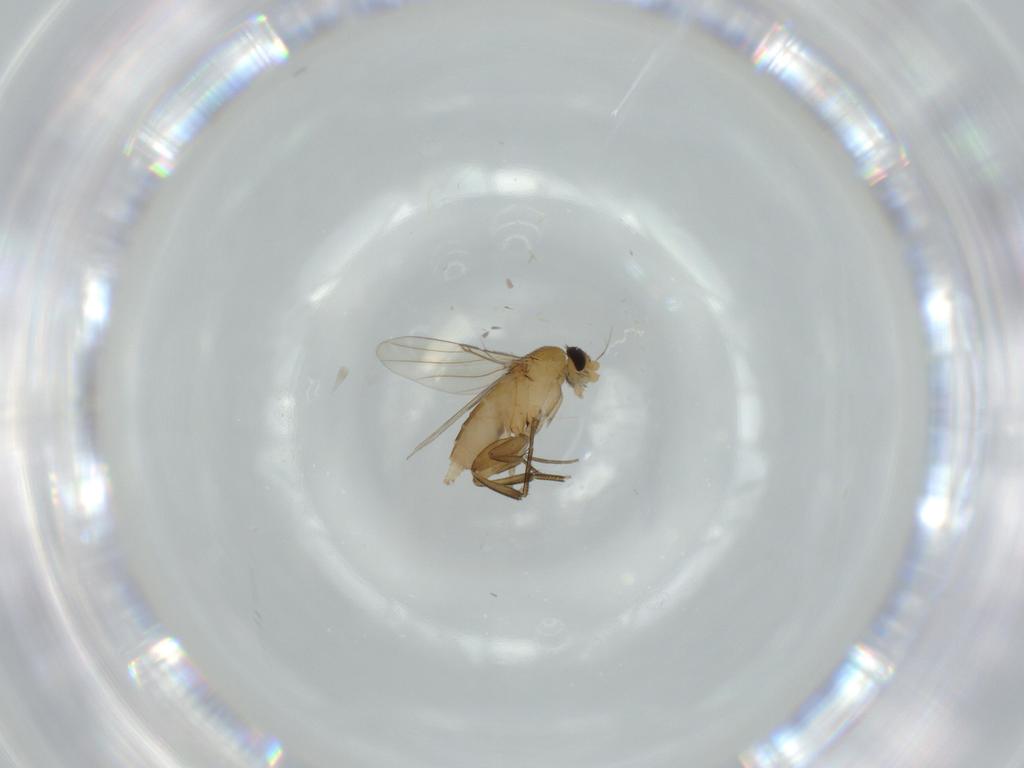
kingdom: Animalia
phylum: Arthropoda
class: Insecta
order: Diptera
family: Phoridae
